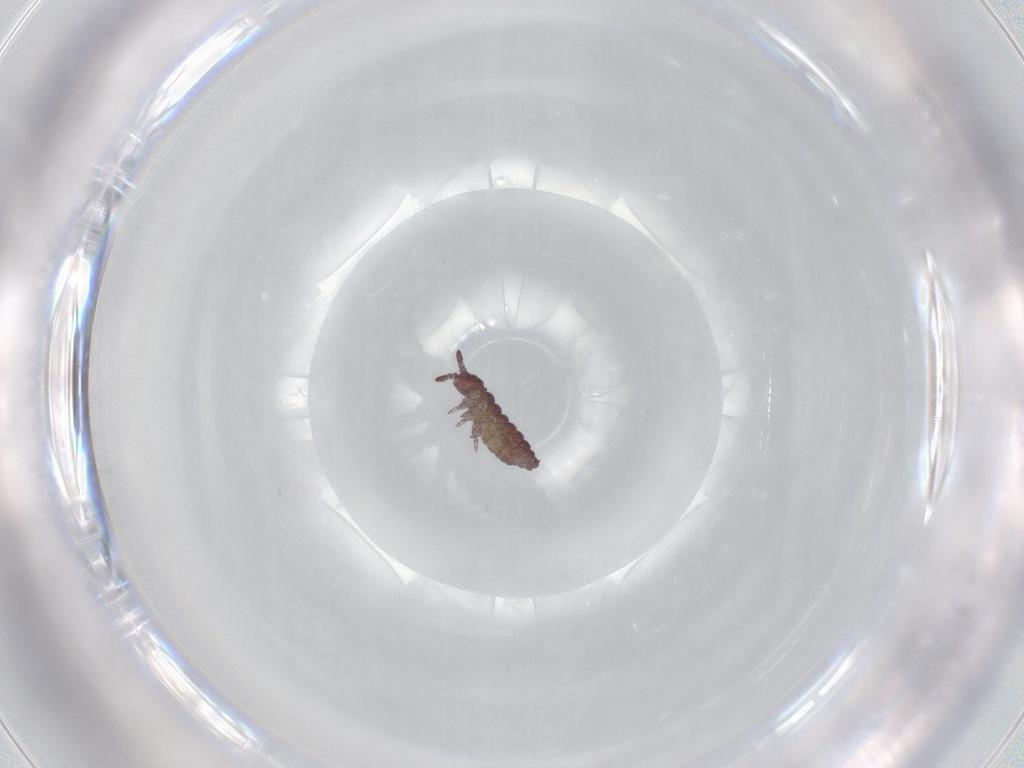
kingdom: Animalia
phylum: Arthropoda
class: Collembola
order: Poduromorpha
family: Hypogastruridae
